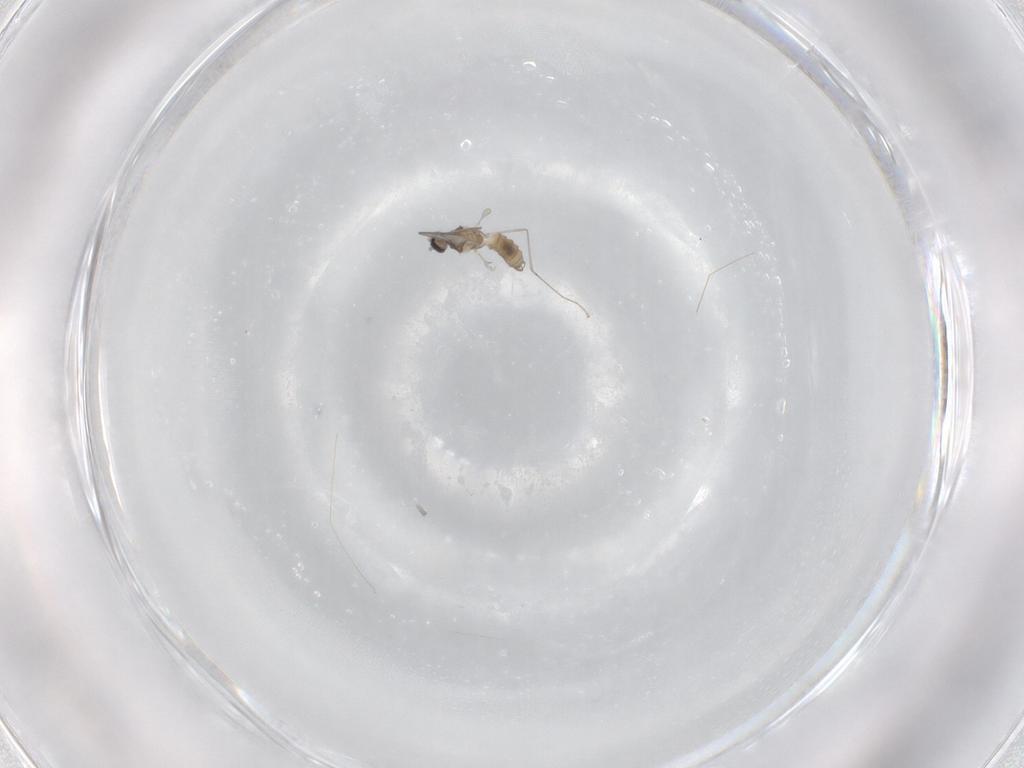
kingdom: Animalia
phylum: Arthropoda
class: Insecta
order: Diptera
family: Cecidomyiidae
